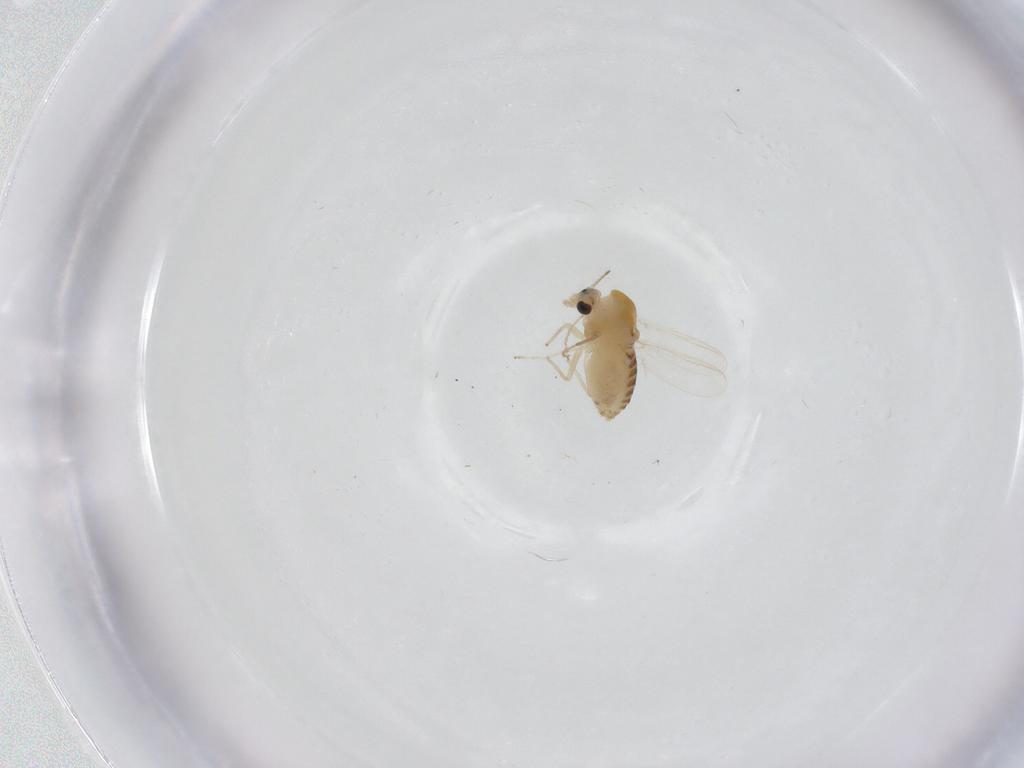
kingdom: Animalia
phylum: Arthropoda
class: Insecta
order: Diptera
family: Chironomidae
